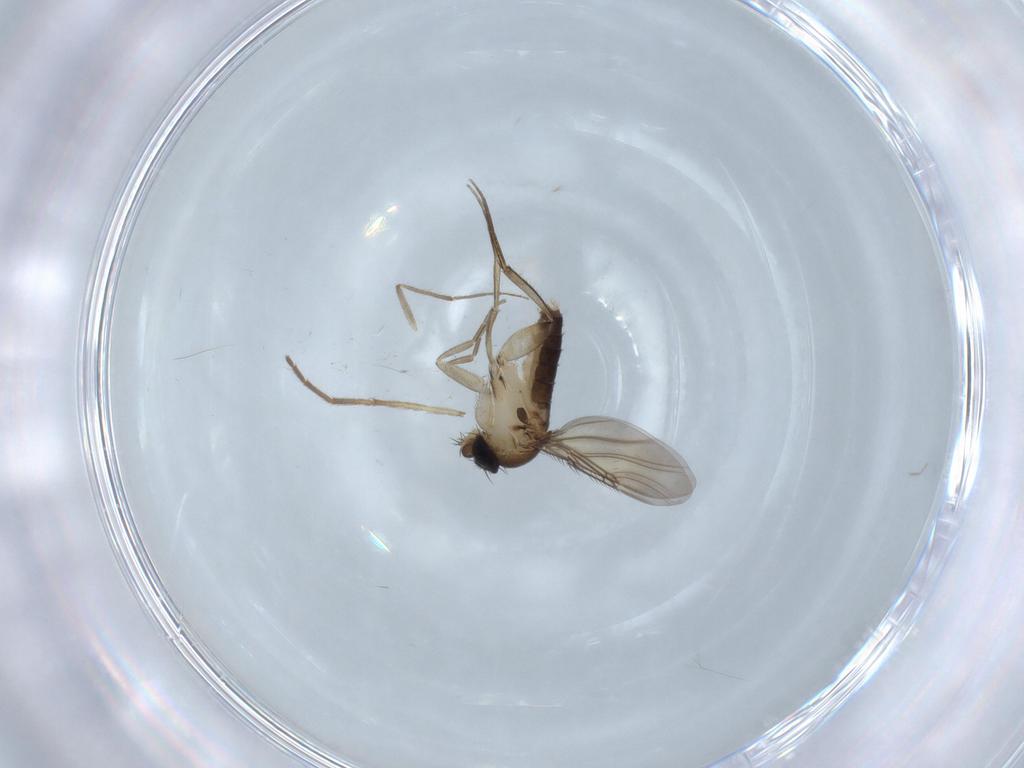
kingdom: Animalia
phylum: Arthropoda
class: Insecta
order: Diptera
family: Phoridae
